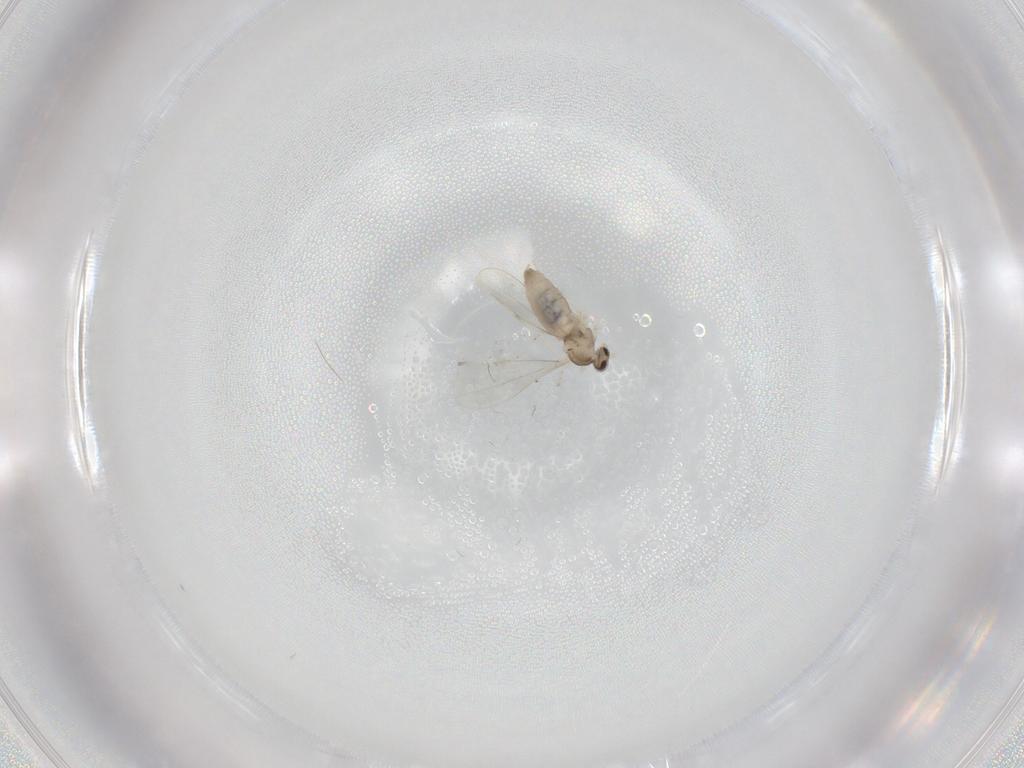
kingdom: Animalia
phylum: Arthropoda
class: Insecta
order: Diptera
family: Cecidomyiidae
